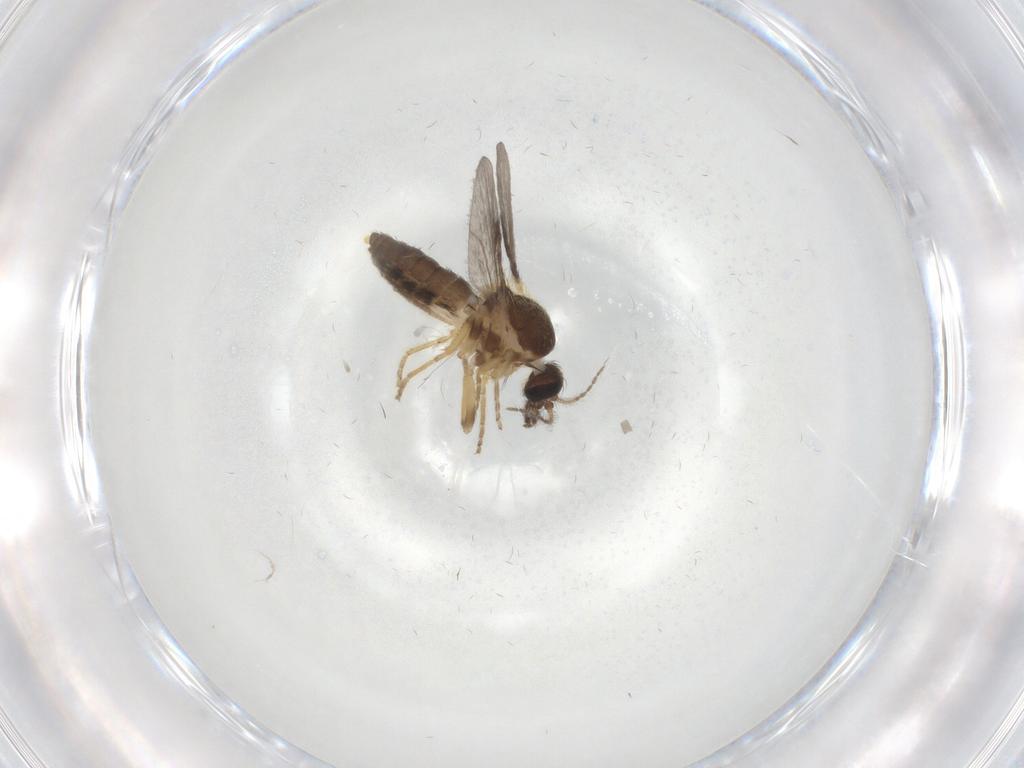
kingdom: Animalia
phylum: Arthropoda
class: Insecta
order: Diptera
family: Ceratopogonidae
